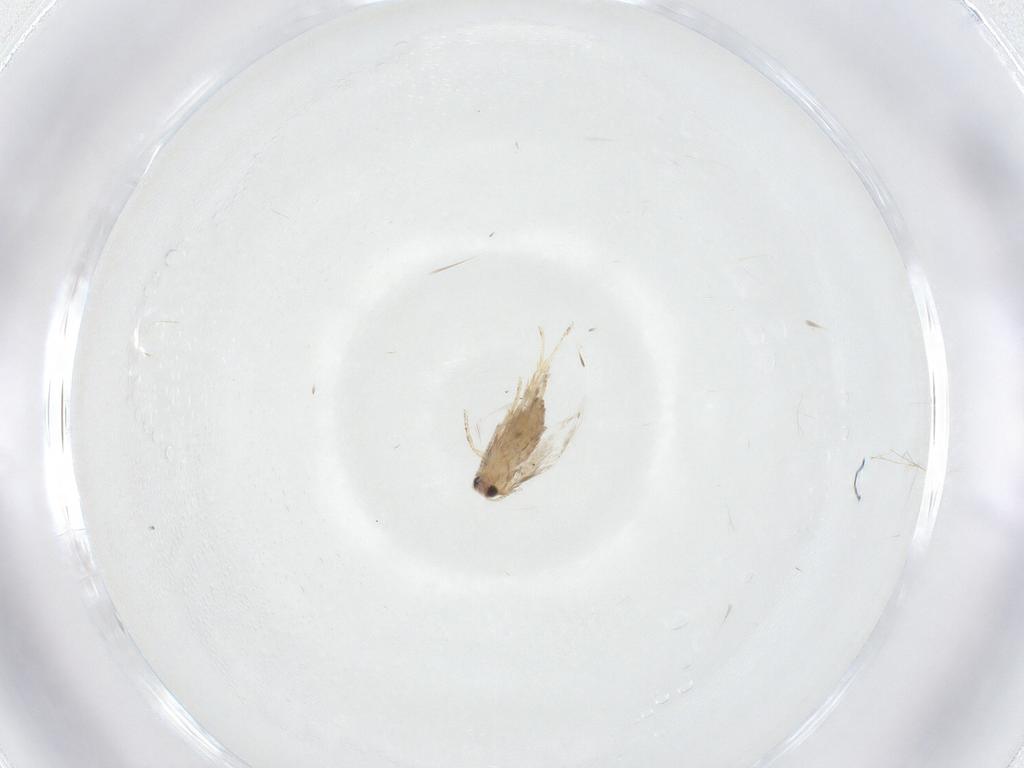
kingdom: Animalia
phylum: Arthropoda
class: Insecta
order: Lepidoptera
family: Nepticulidae
